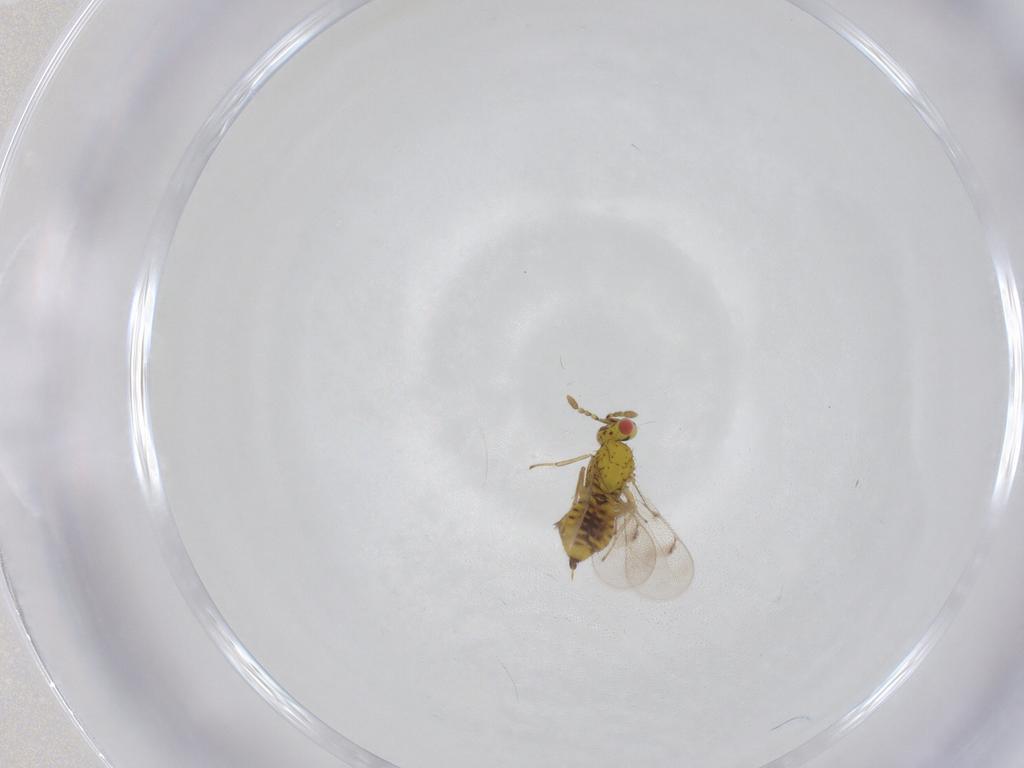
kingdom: Animalia
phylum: Arthropoda
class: Insecta
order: Hymenoptera
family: Eulophidae
